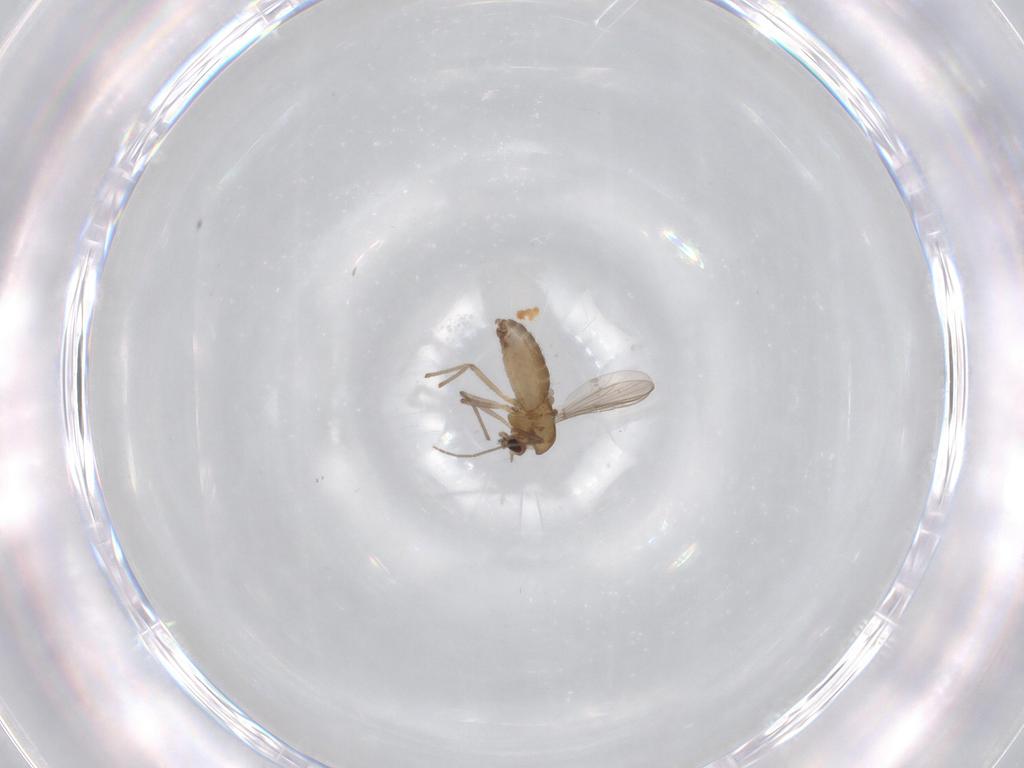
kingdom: Animalia
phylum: Arthropoda
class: Insecta
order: Diptera
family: Chironomidae
